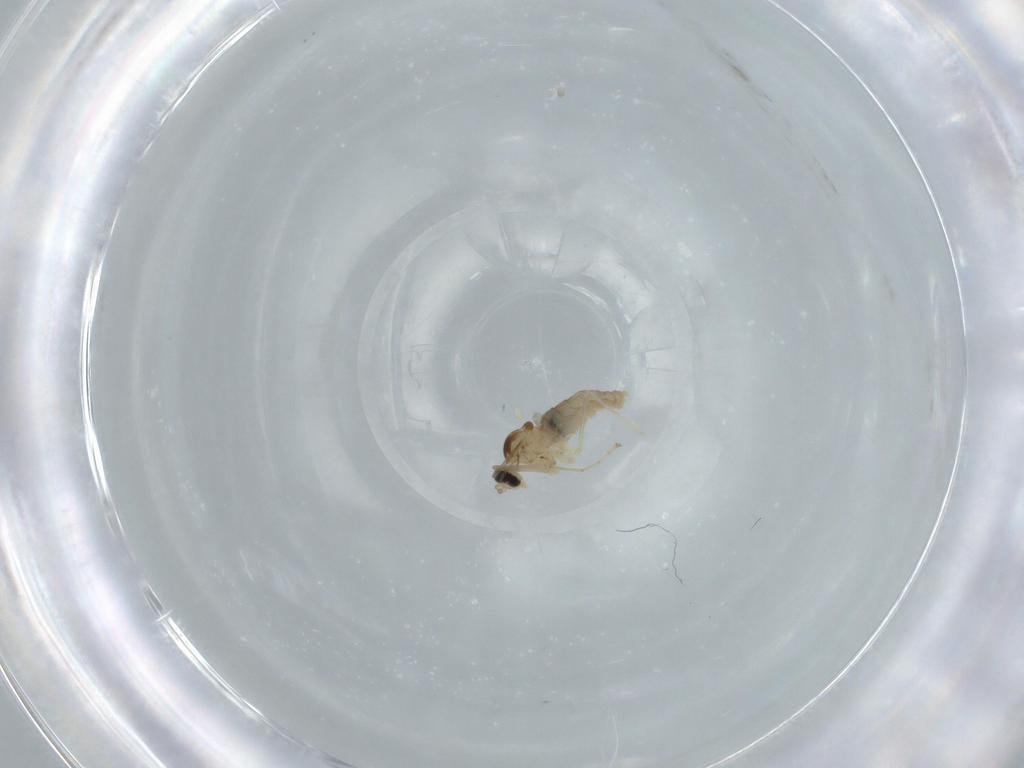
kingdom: Animalia
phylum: Arthropoda
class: Insecta
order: Diptera
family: Cecidomyiidae
